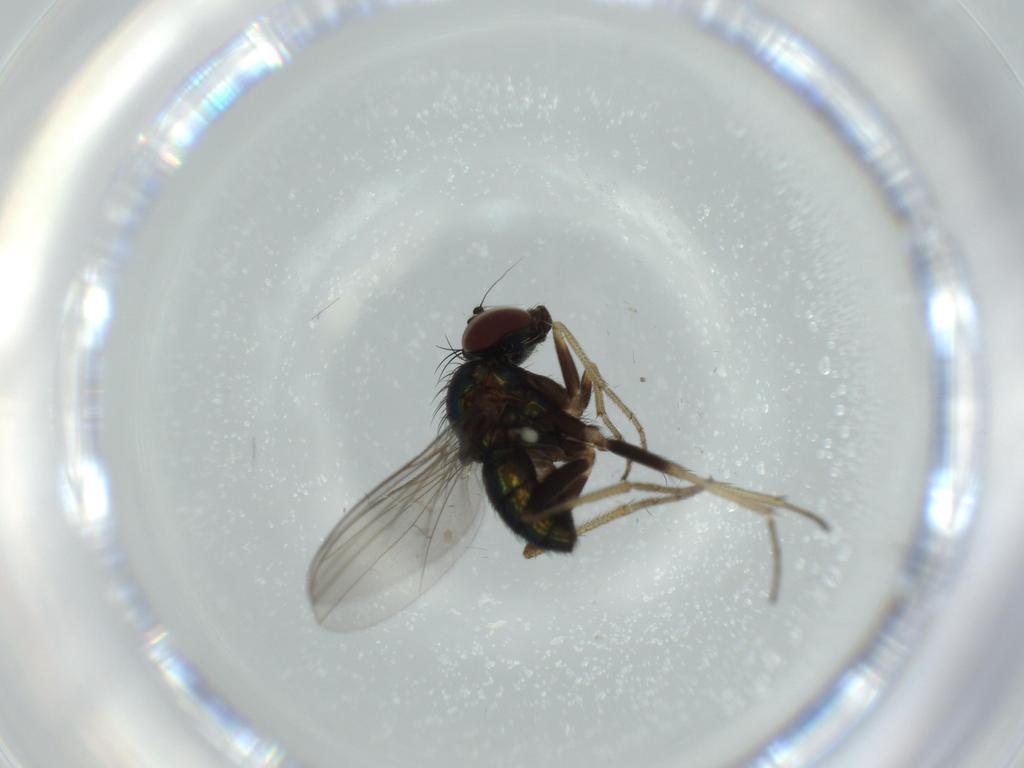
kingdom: Animalia
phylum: Arthropoda
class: Insecta
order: Diptera
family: Dolichopodidae
